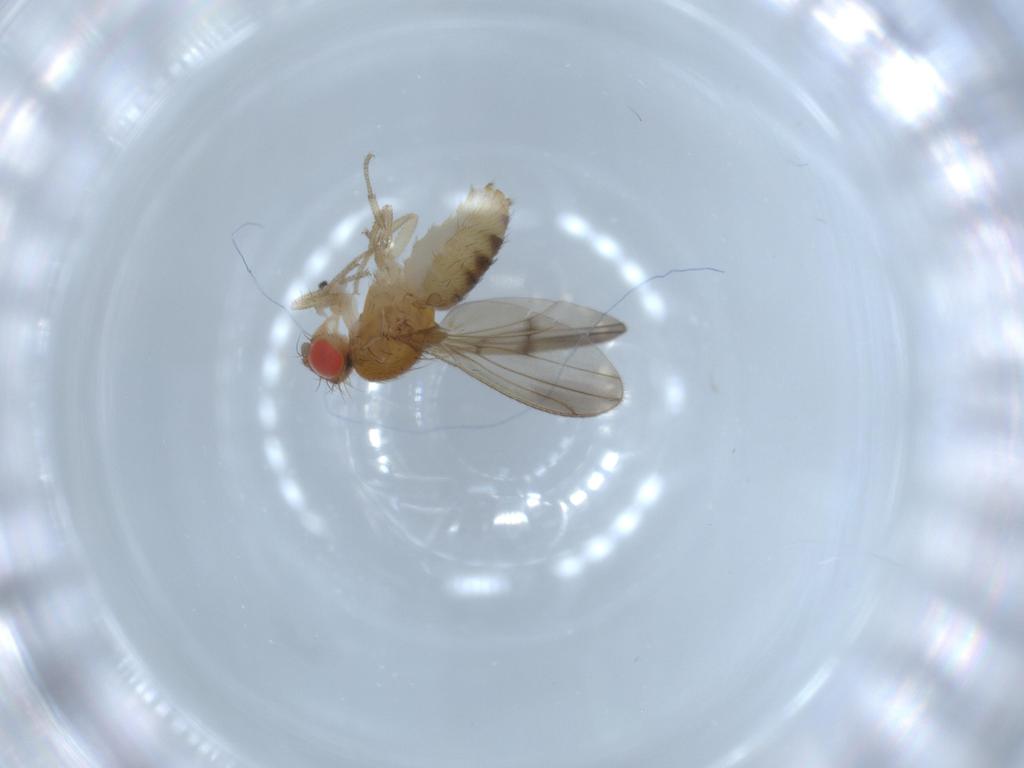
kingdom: Animalia
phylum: Arthropoda
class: Insecta
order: Diptera
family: Drosophilidae
